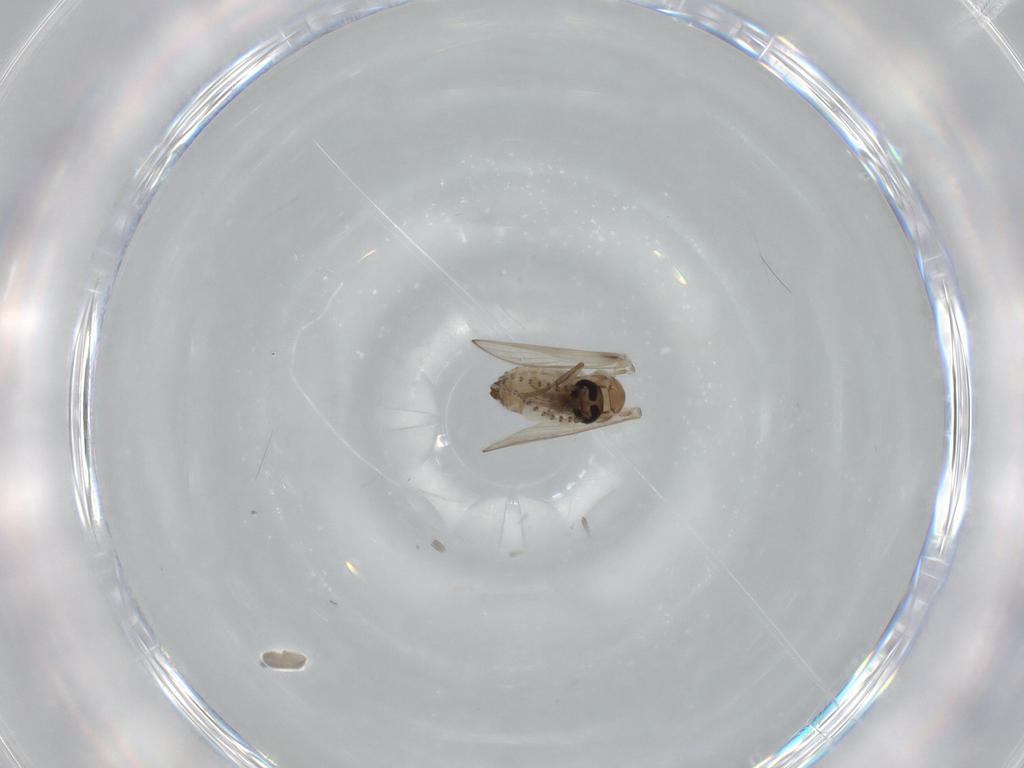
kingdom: Animalia
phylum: Arthropoda
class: Insecta
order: Diptera
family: Psychodidae
